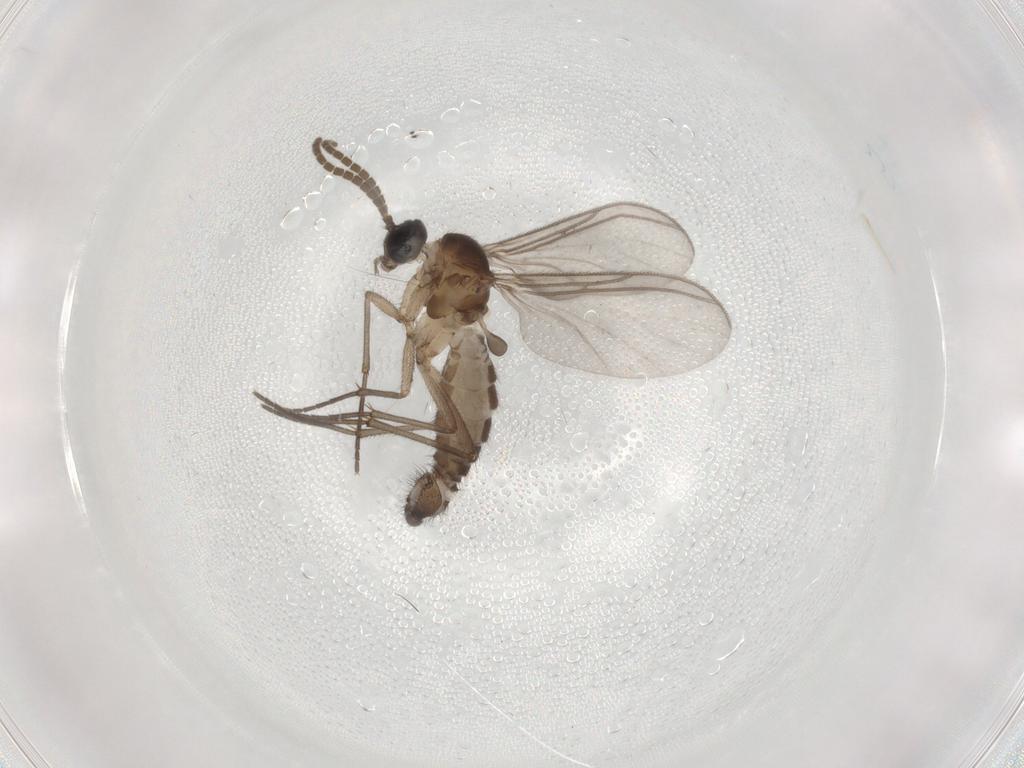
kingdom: Animalia
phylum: Arthropoda
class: Insecta
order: Diptera
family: Sciaridae
